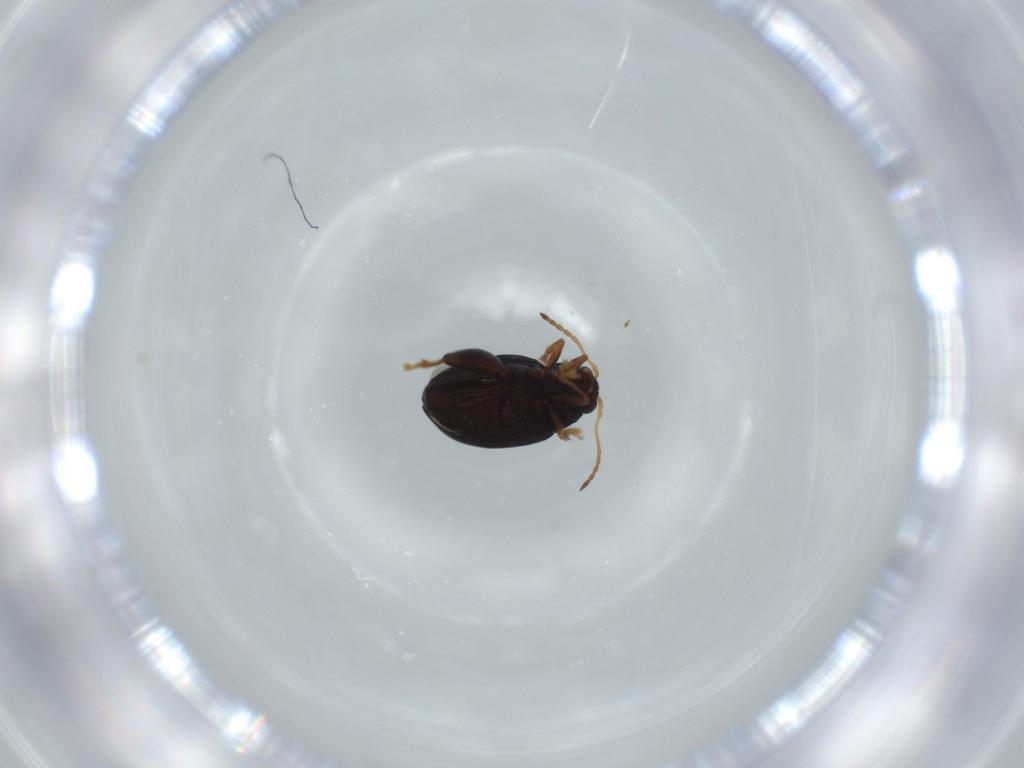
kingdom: Animalia
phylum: Arthropoda
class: Insecta
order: Coleoptera
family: Chrysomelidae
